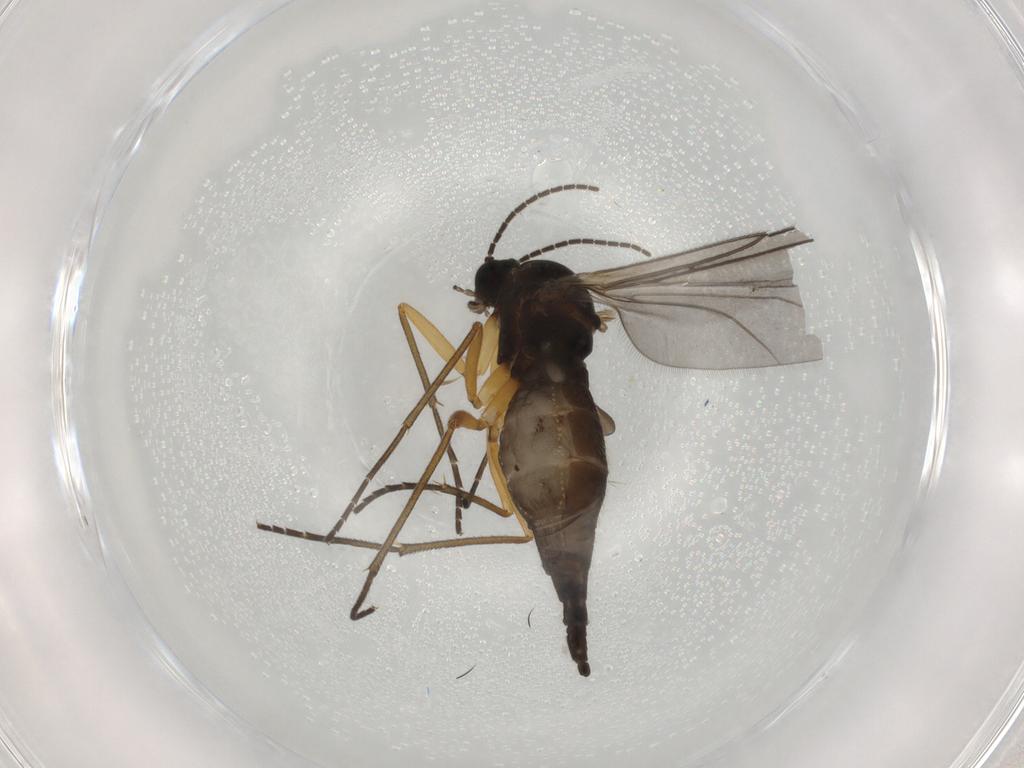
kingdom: Animalia
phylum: Arthropoda
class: Insecta
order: Diptera
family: Sciaridae
